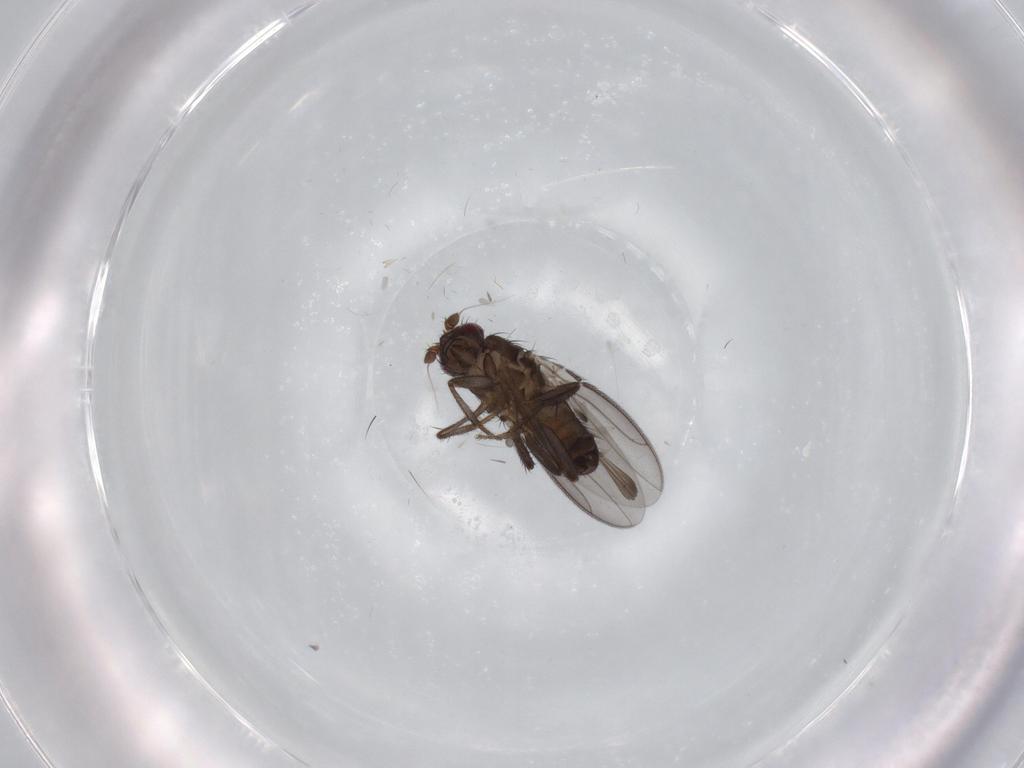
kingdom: Animalia
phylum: Arthropoda
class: Insecta
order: Diptera
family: Sphaeroceridae
